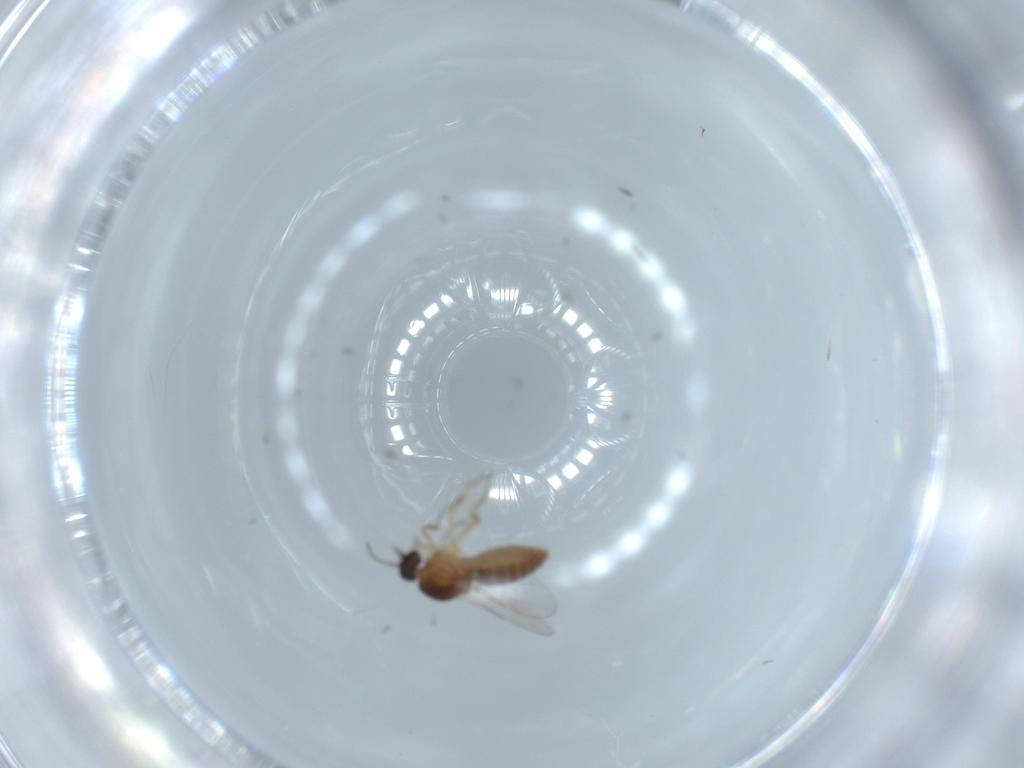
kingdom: Animalia
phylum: Arthropoda
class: Insecta
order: Diptera
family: Ceratopogonidae
